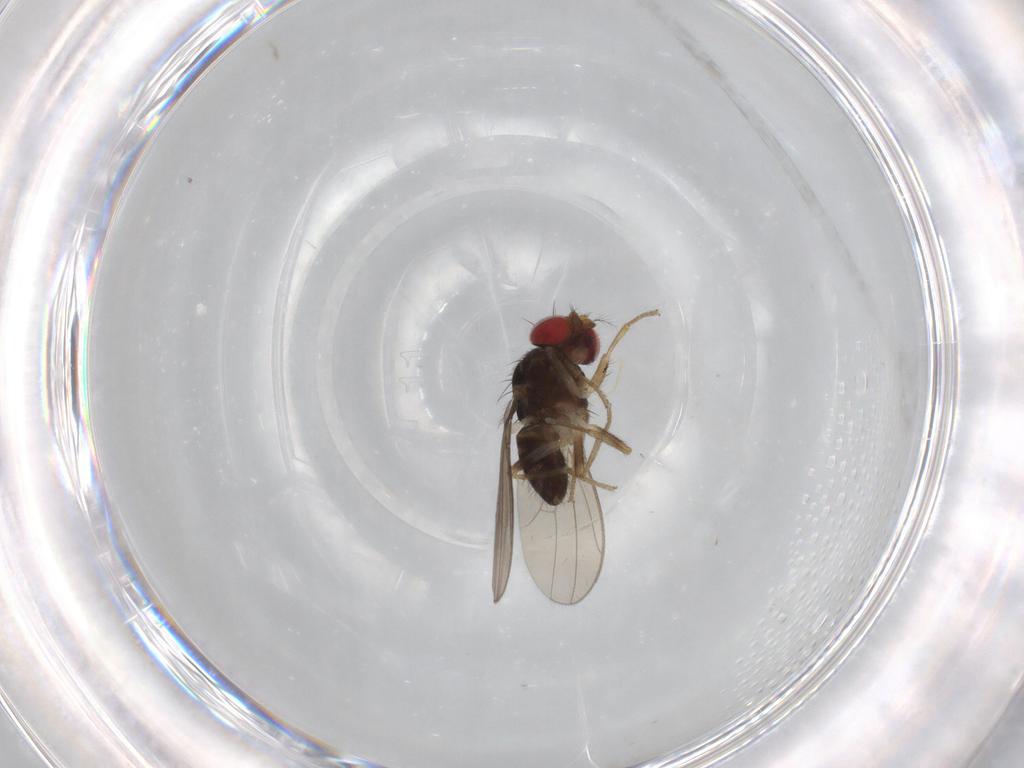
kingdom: Animalia
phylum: Arthropoda
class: Insecta
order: Diptera
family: Drosophilidae
